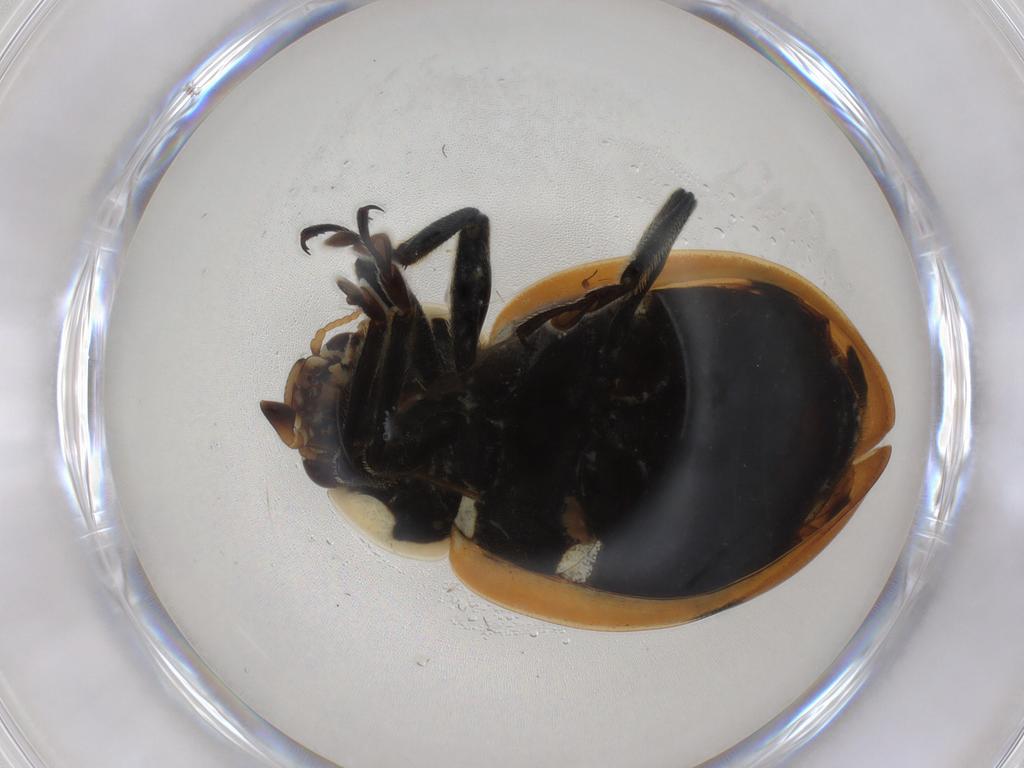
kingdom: Animalia
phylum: Arthropoda
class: Insecta
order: Coleoptera
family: Coccinellidae
